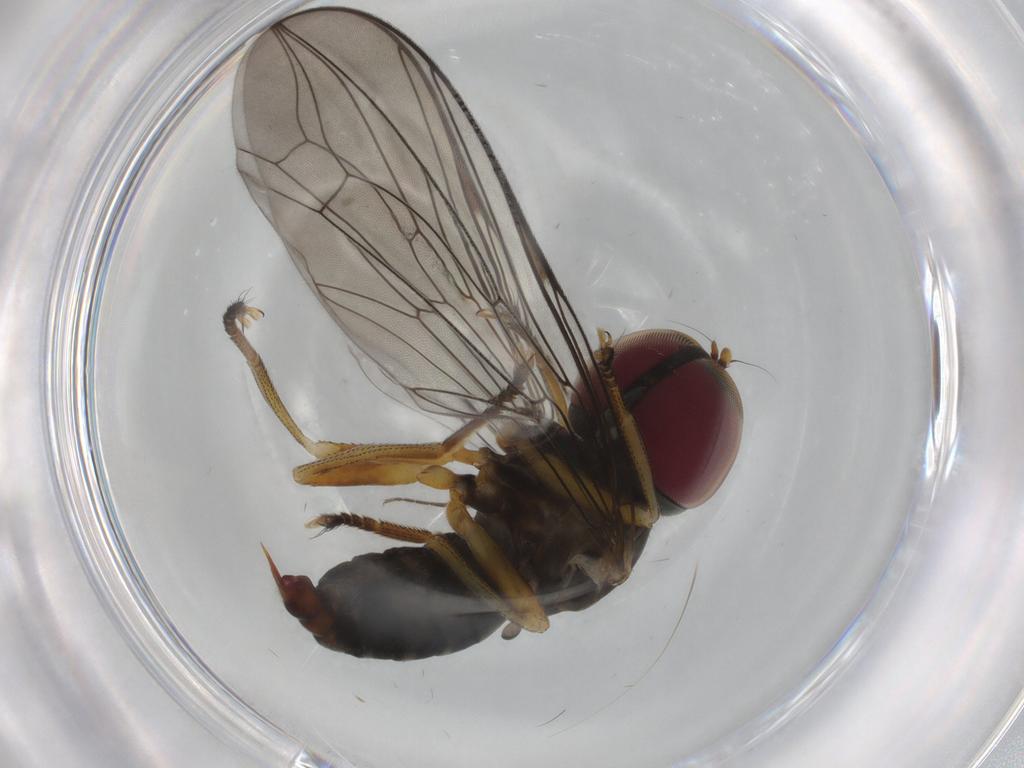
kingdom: Animalia
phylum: Arthropoda
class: Insecta
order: Diptera
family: Pipunculidae
